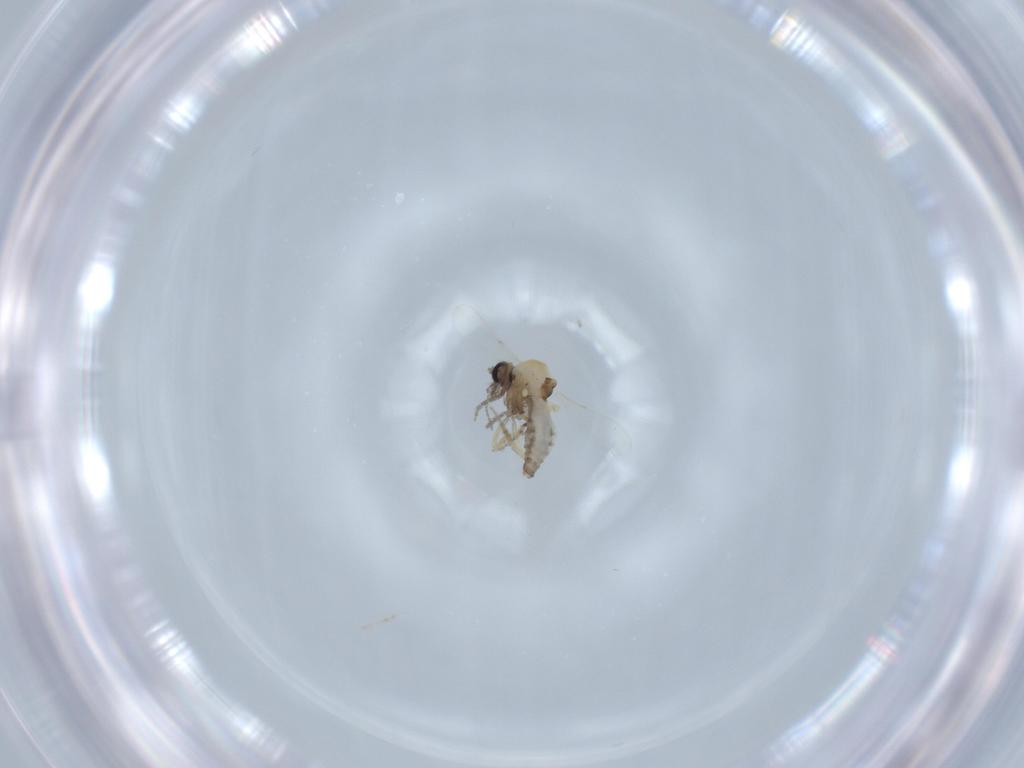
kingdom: Animalia
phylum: Arthropoda
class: Insecta
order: Diptera
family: Ceratopogonidae
